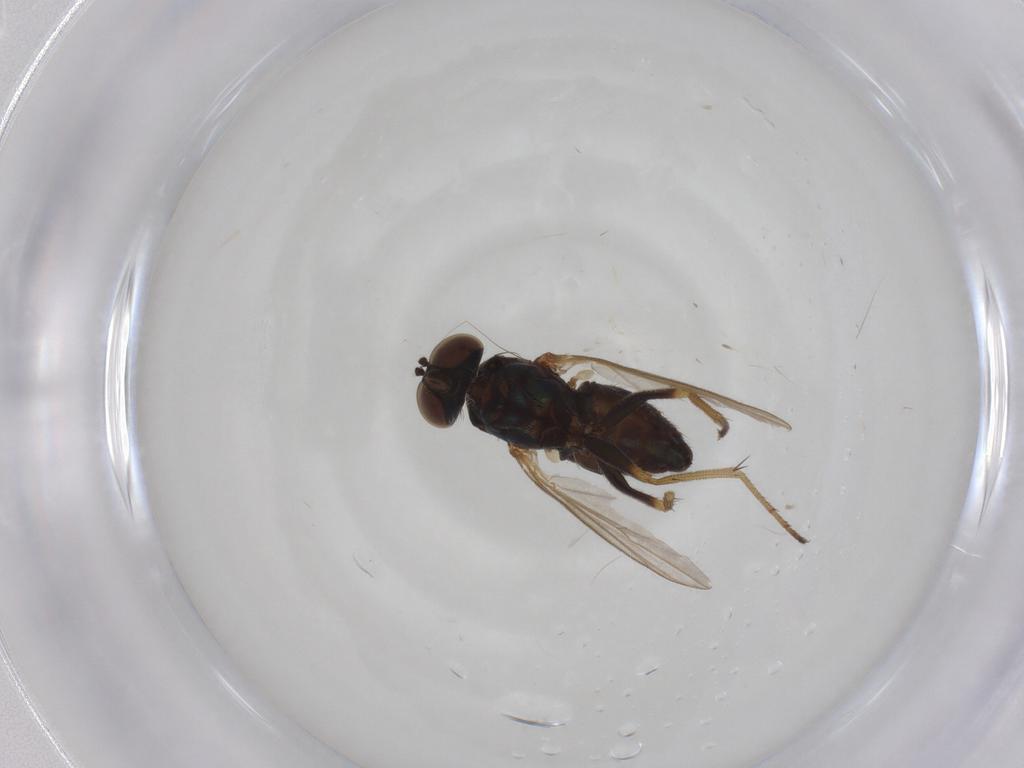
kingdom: Animalia
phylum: Arthropoda
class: Insecta
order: Diptera
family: Dolichopodidae
